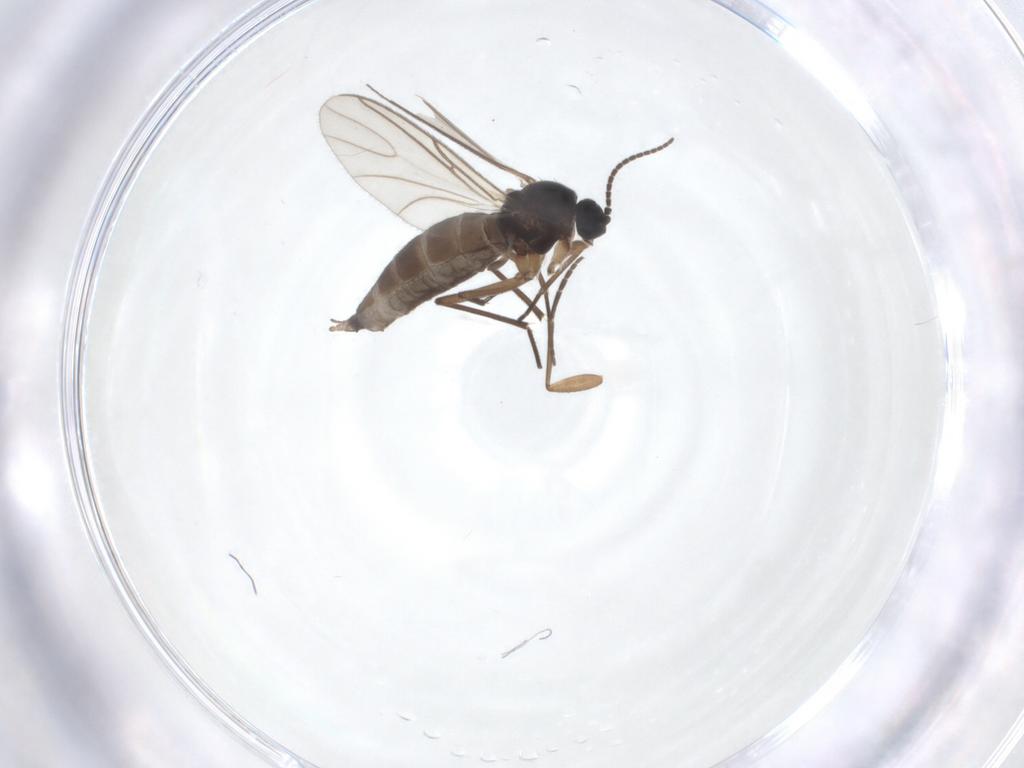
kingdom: Animalia
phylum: Arthropoda
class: Insecta
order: Diptera
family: Sciaridae
